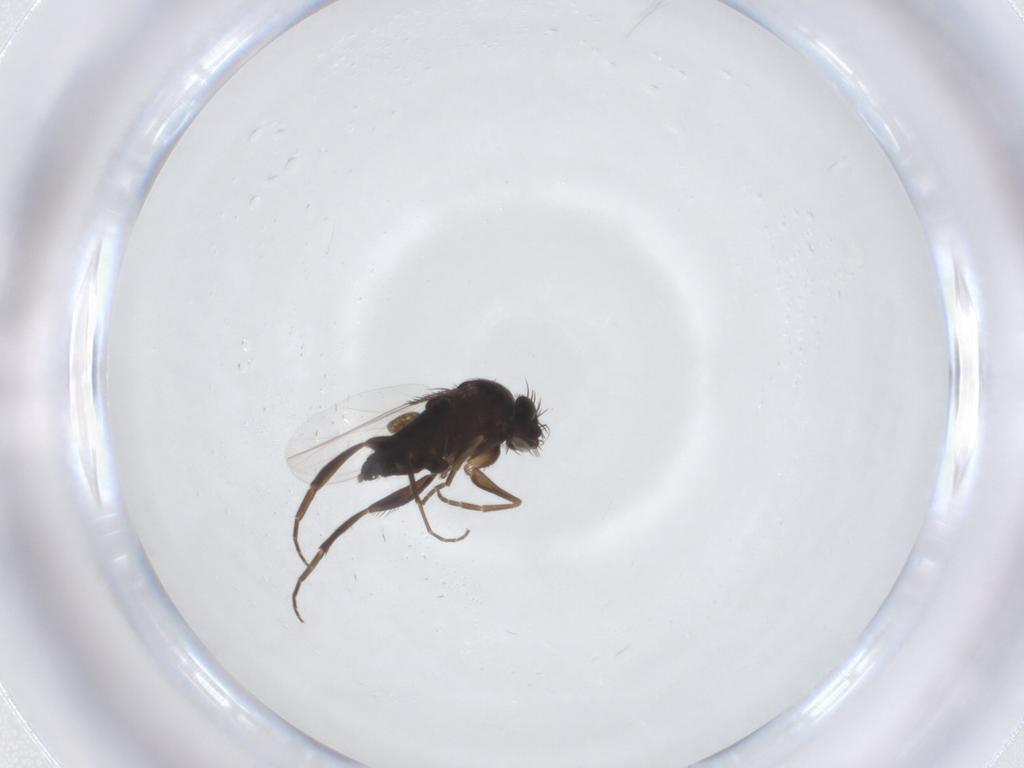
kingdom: Animalia
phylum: Arthropoda
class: Insecta
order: Diptera
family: Phoridae
